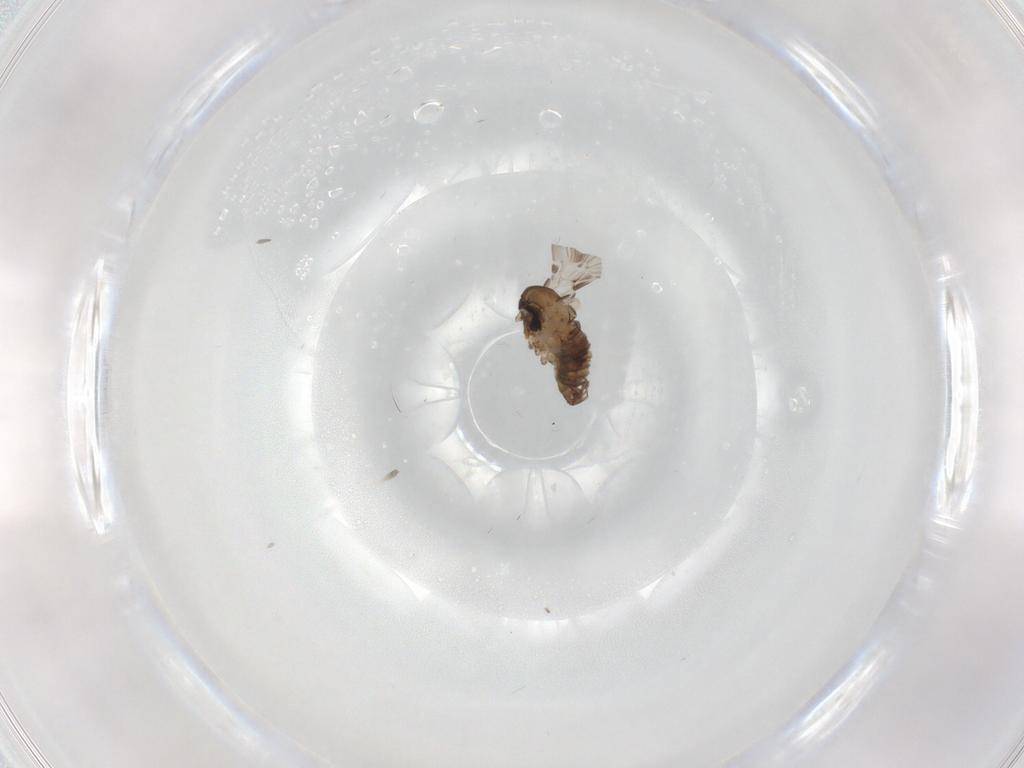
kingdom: Animalia
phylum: Arthropoda
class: Insecta
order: Diptera
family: Psychodidae
